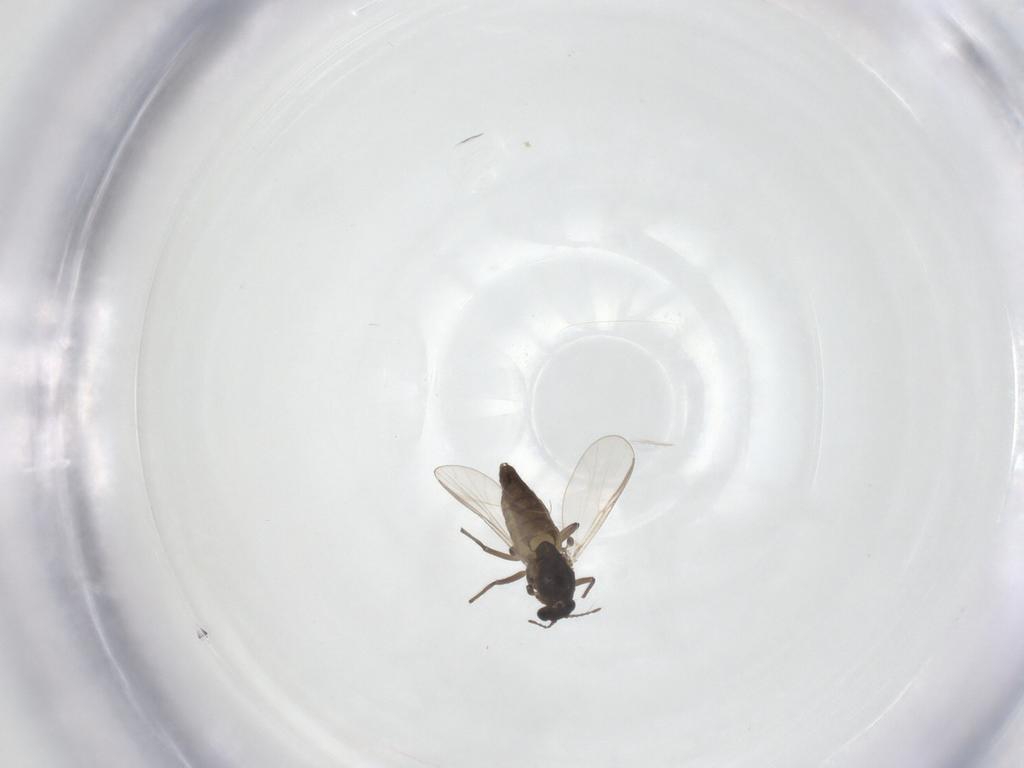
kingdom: Animalia
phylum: Arthropoda
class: Insecta
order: Diptera
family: Chironomidae
